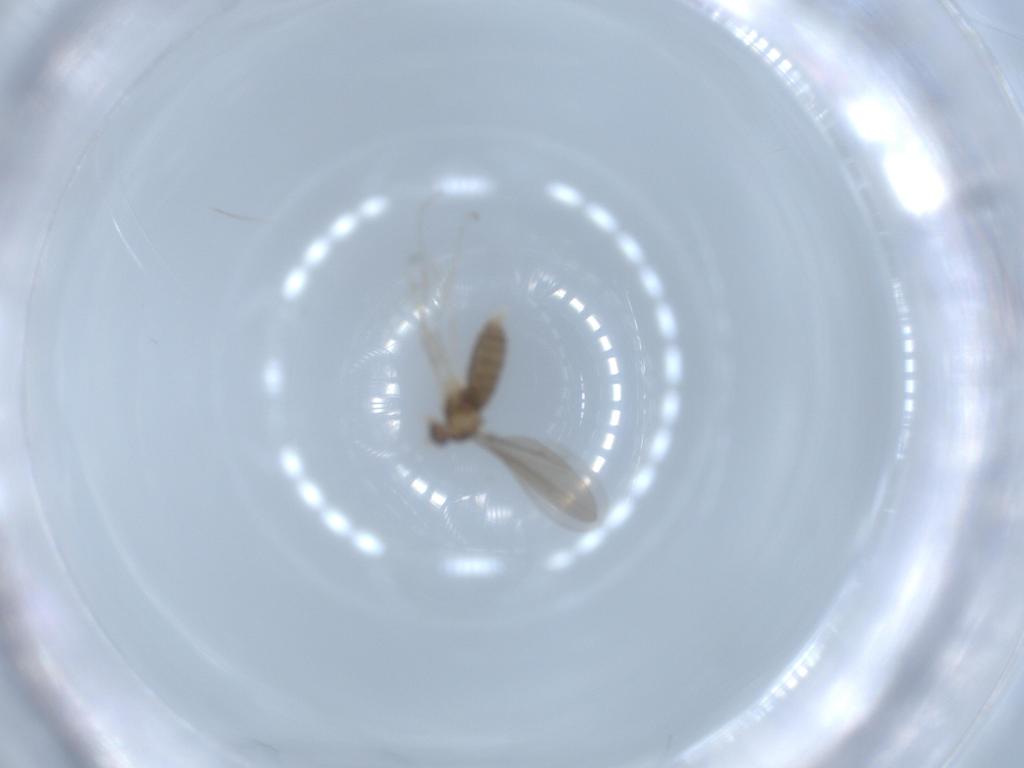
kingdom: Animalia
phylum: Arthropoda
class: Insecta
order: Diptera
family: Cecidomyiidae
